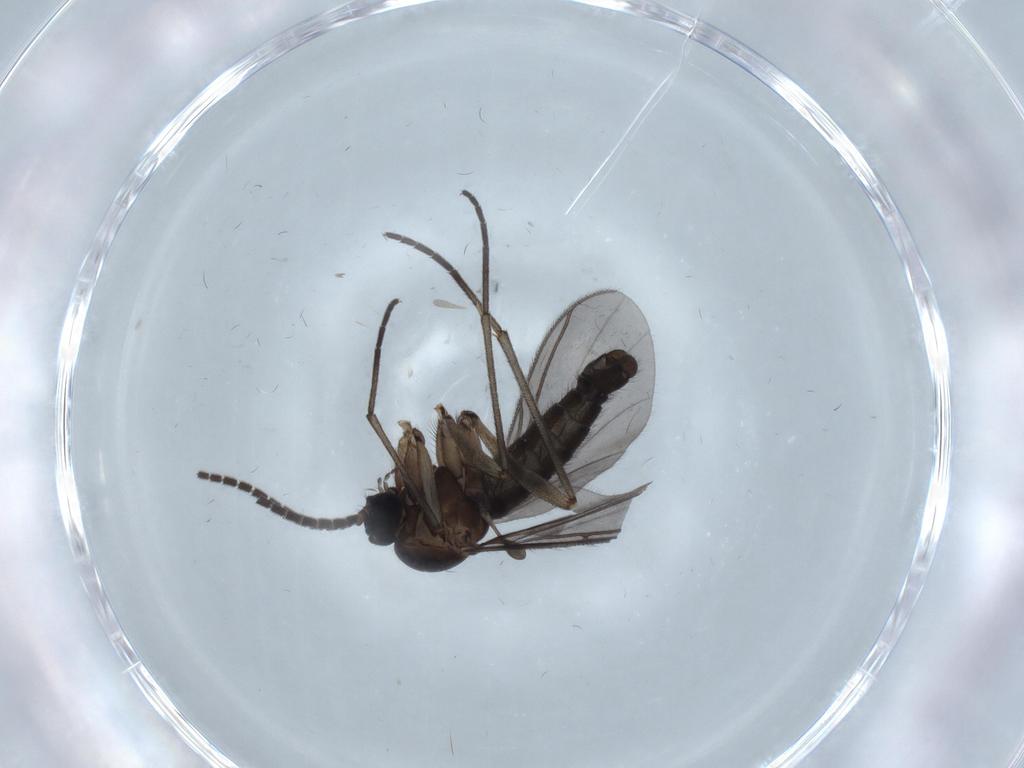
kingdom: Animalia
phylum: Arthropoda
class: Insecta
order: Diptera
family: Sciaridae
